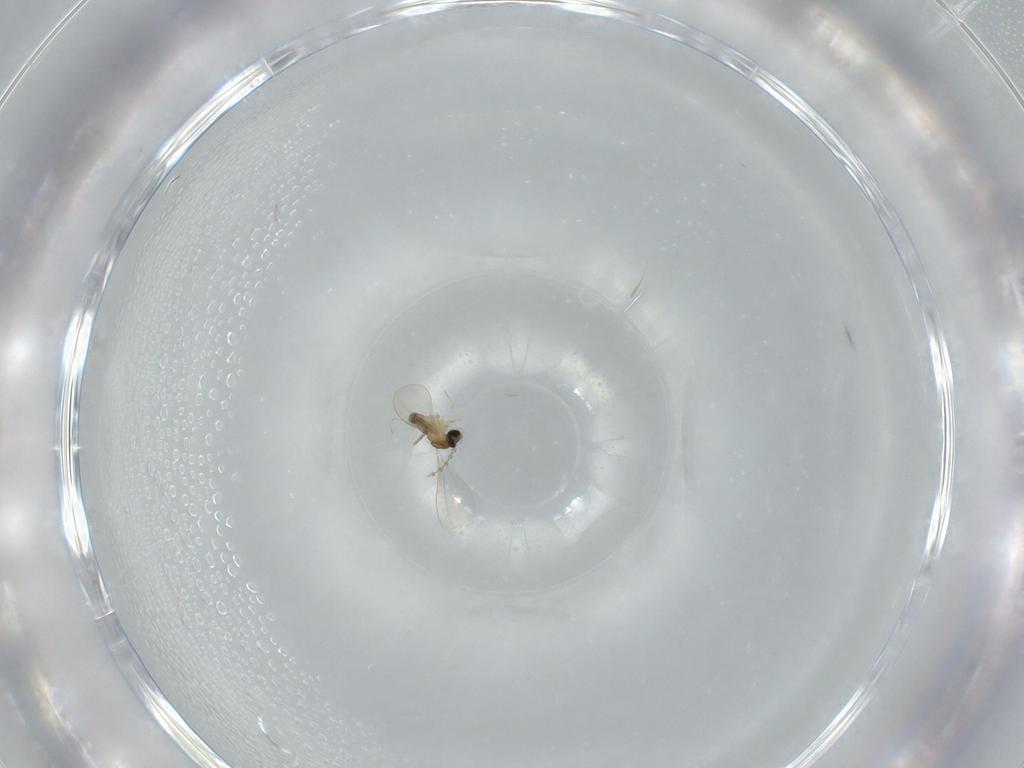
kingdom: Animalia
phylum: Arthropoda
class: Insecta
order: Diptera
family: Cecidomyiidae
